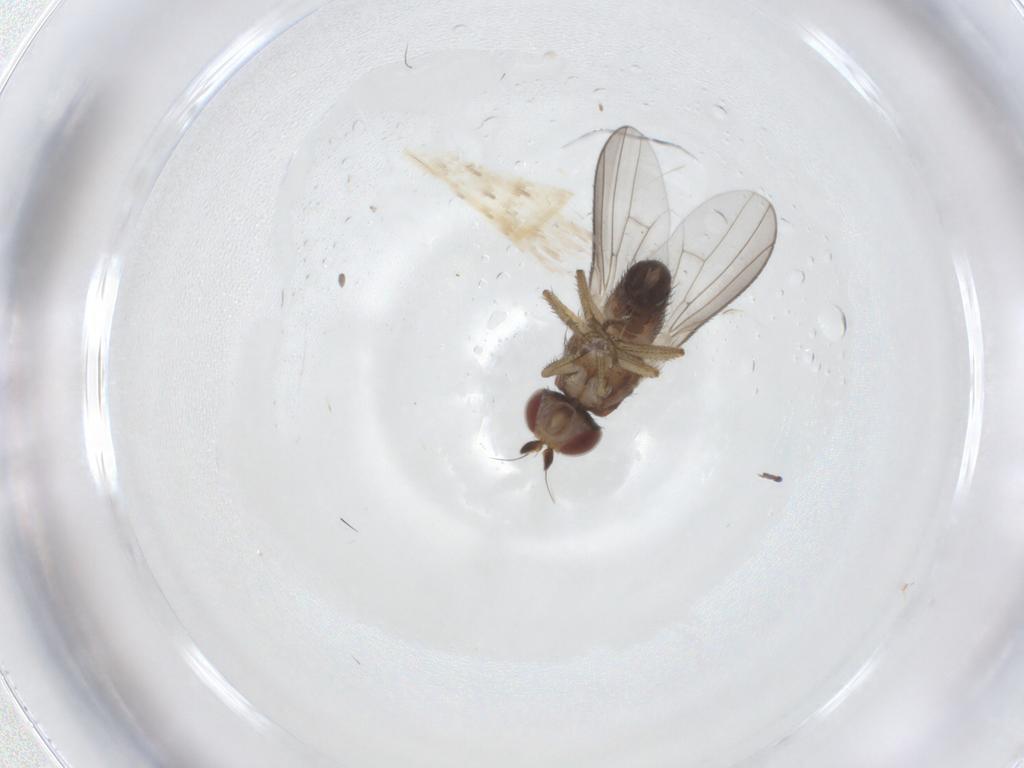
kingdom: Animalia
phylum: Arthropoda
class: Insecta
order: Diptera
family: Heleomyzidae
